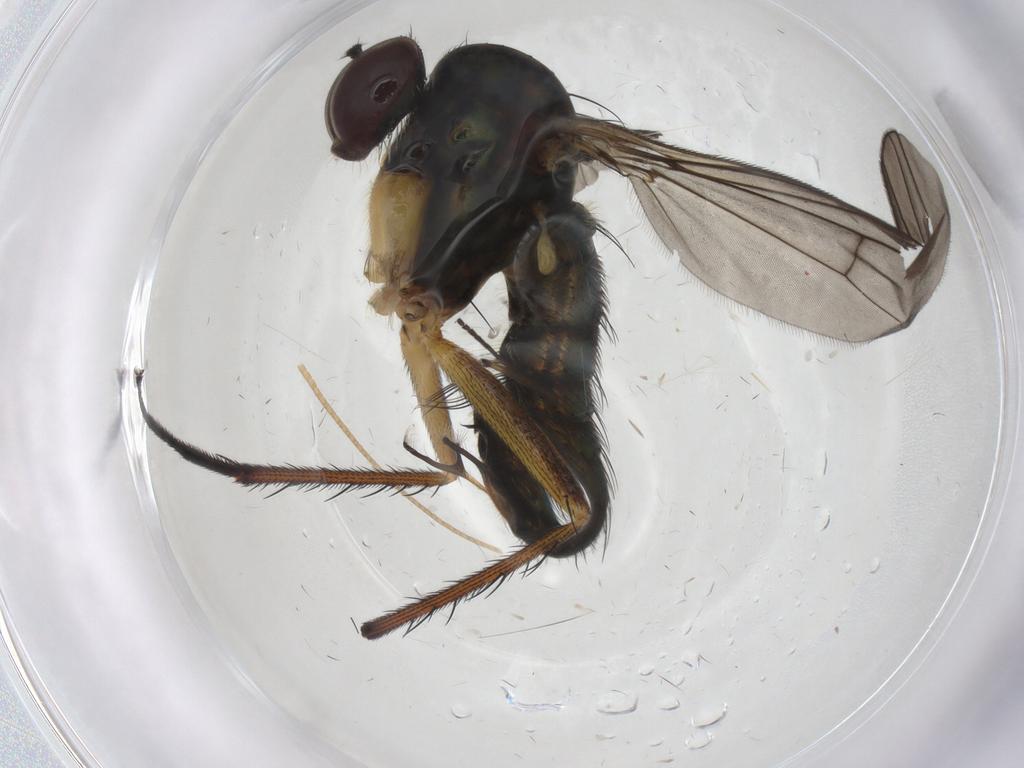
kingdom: Animalia
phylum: Arthropoda
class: Insecta
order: Diptera
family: Dolichopodidae
